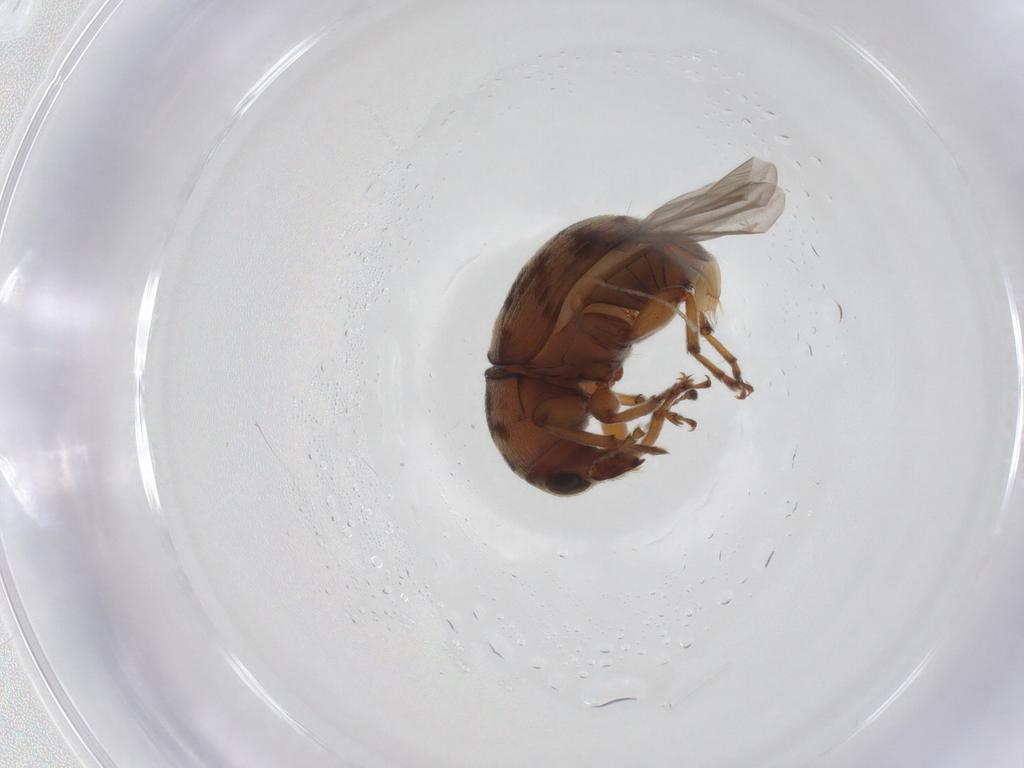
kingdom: Animalia
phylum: Arthropoda
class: Insecta
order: Coleoptera
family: Anthribidae
